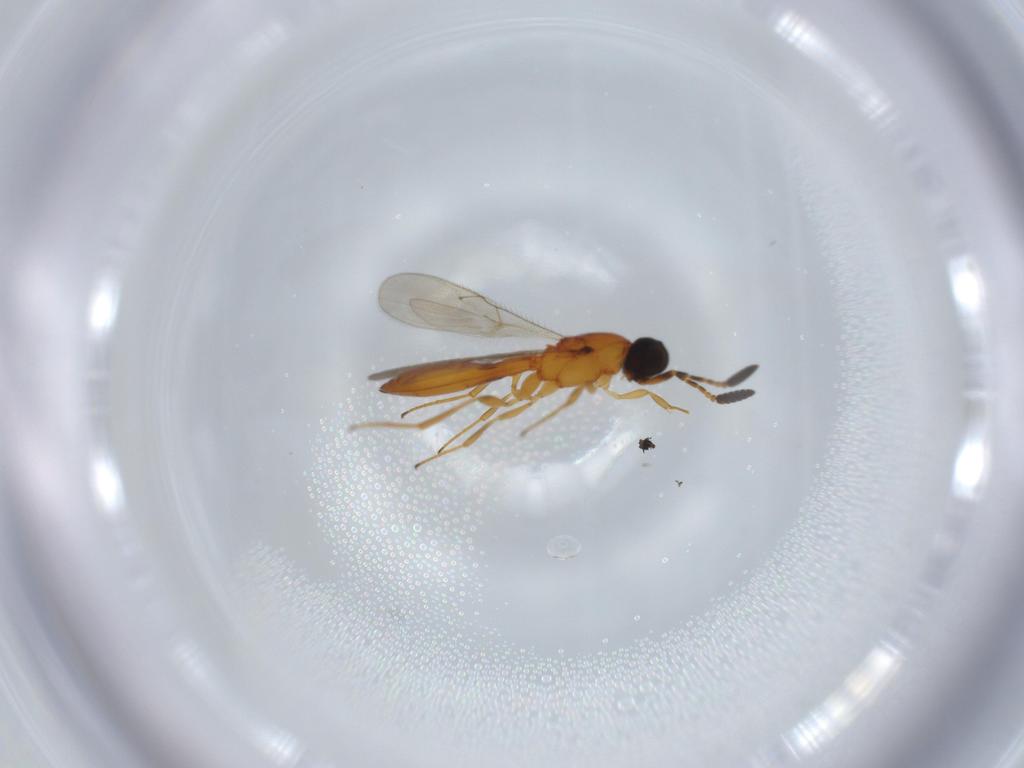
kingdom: Animalia
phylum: Arthropoda
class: Insecta
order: Hymenoptera
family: Scelionidae
